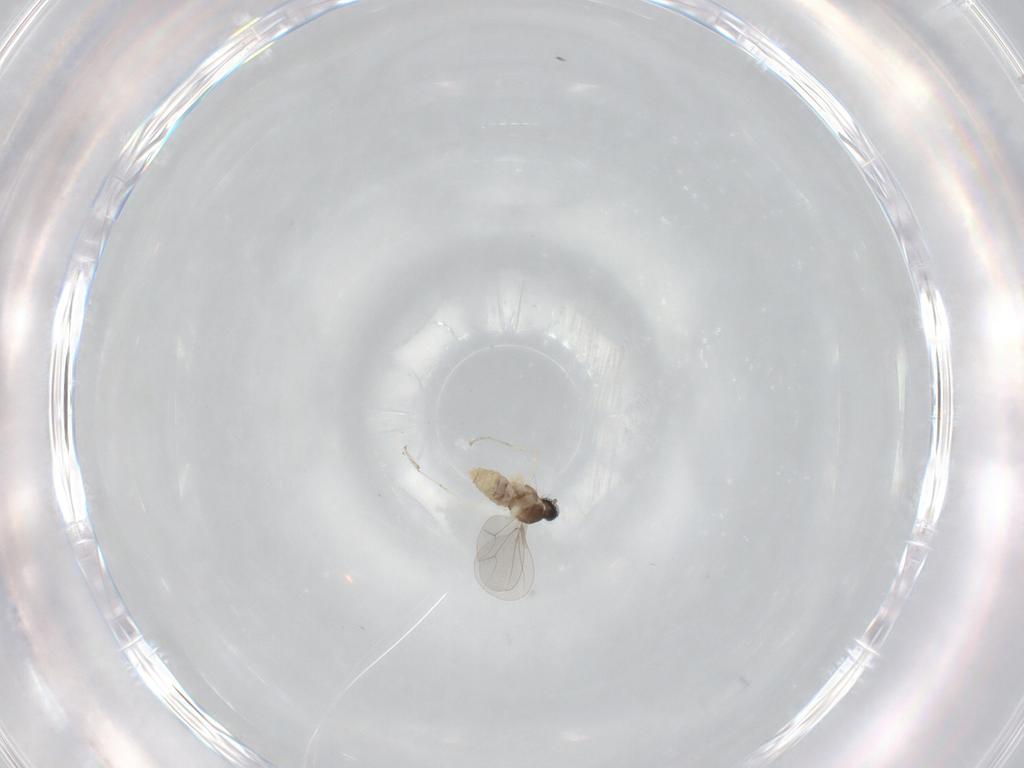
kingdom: Animalia
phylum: Arthropoda
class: Insecta
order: Diptera
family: Cecidomyiidae
